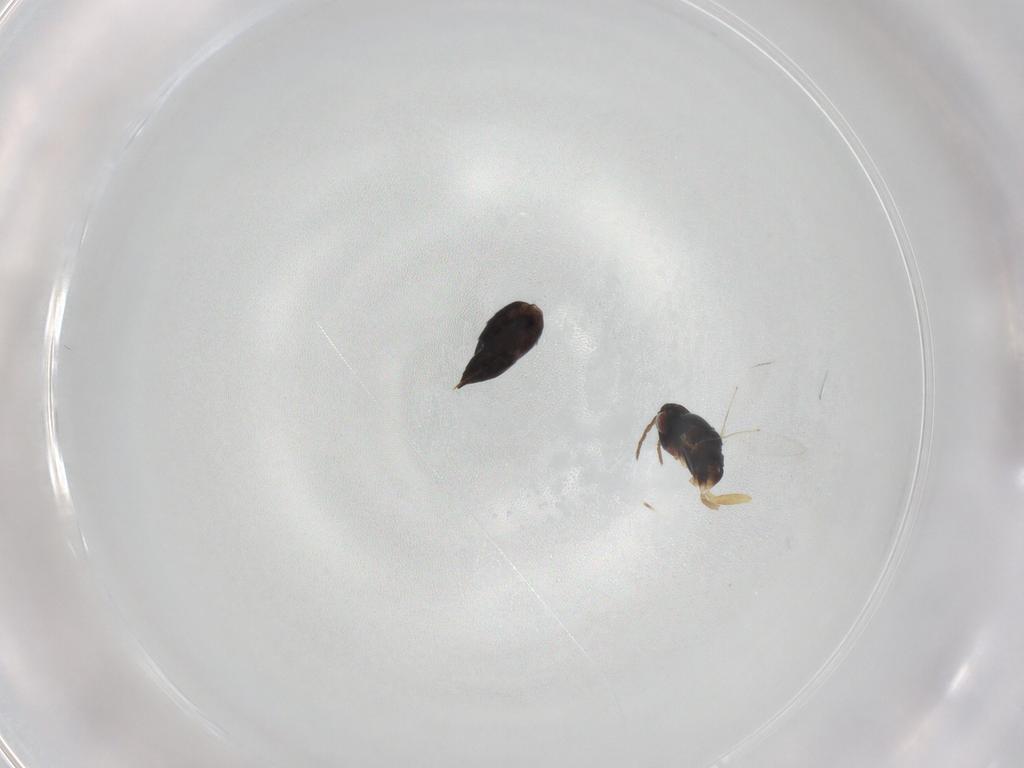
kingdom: Animalia
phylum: Arthropoda
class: Insecta
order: Hymenoptera
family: Eulophidae
